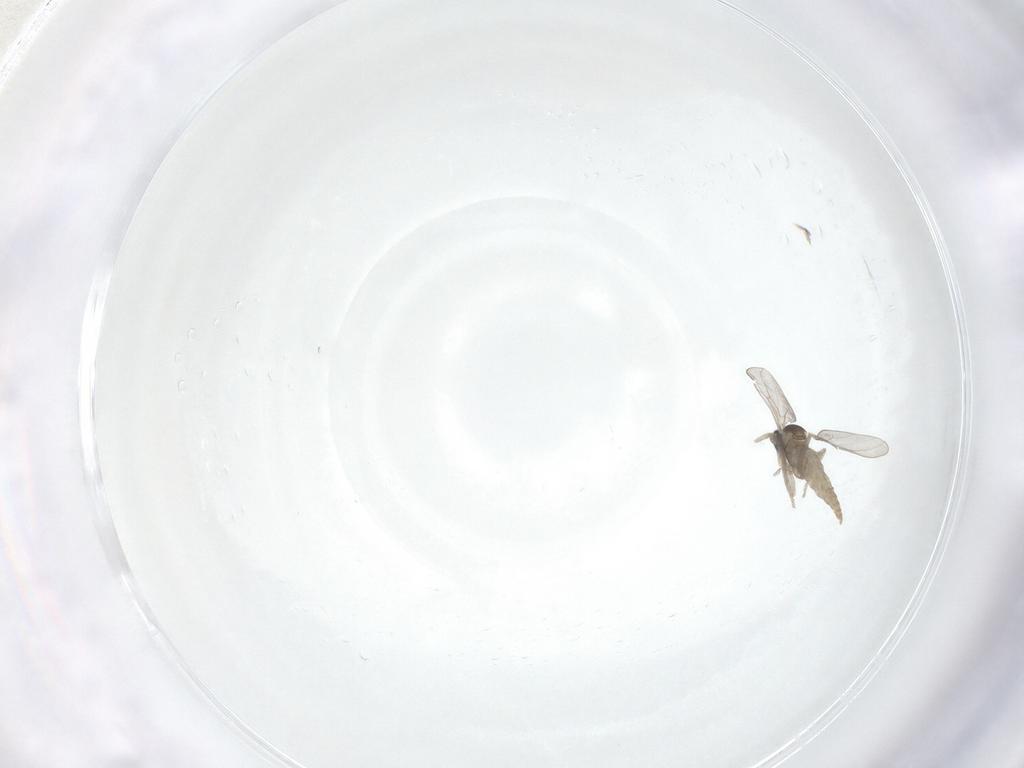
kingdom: Animalia
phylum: Arthropoda
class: Insecta
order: Diptera
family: Cecidomyiidae
